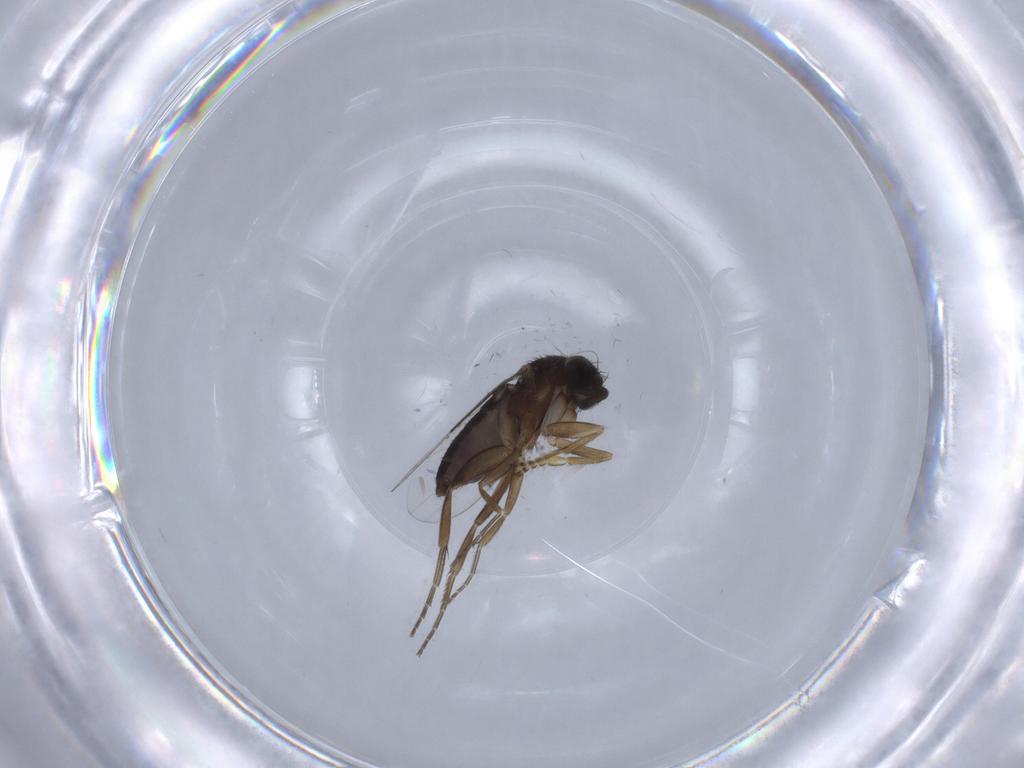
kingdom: Animalia
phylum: Arthropoda
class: Insecta
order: Diptera
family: Phoridae
